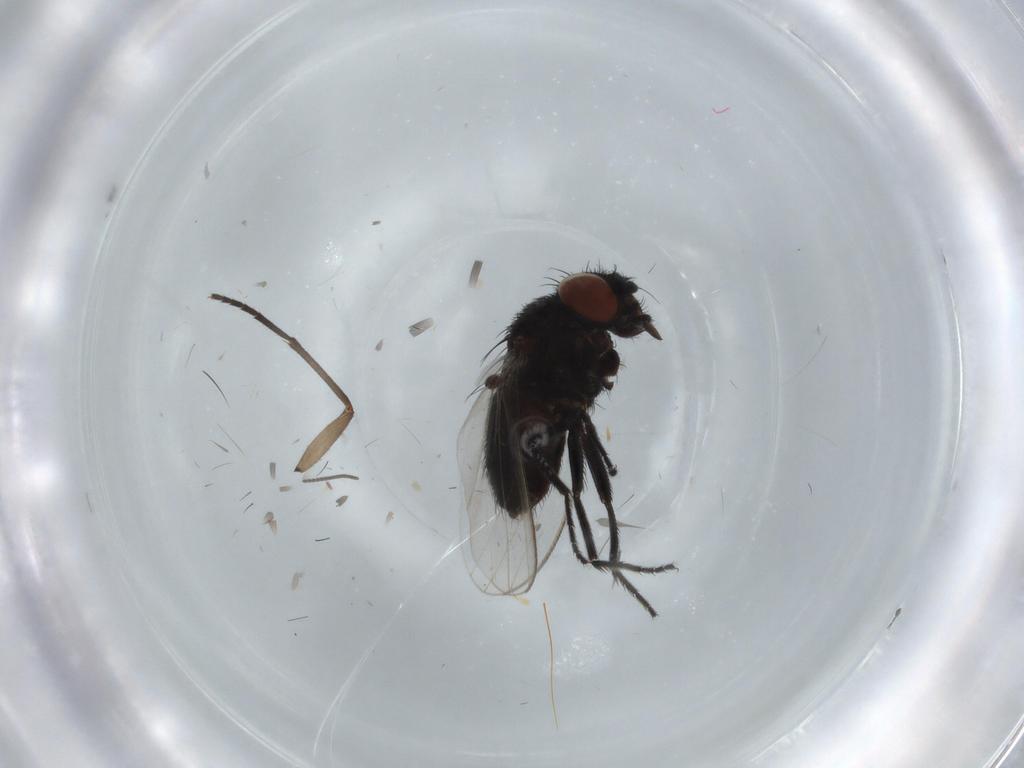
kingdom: Animalia
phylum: Arthropoda
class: Insecta
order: Diptera
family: Milichiidae
